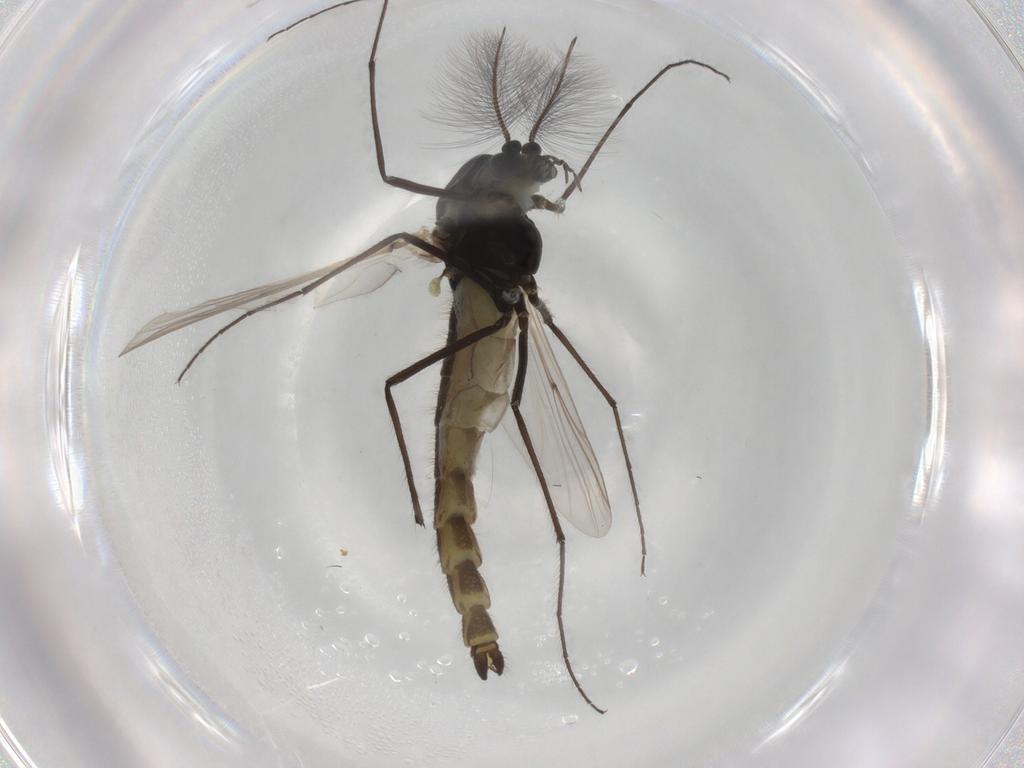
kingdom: Animalia
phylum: Arthropoda
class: Insecta
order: Diptera
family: Chironomidae
